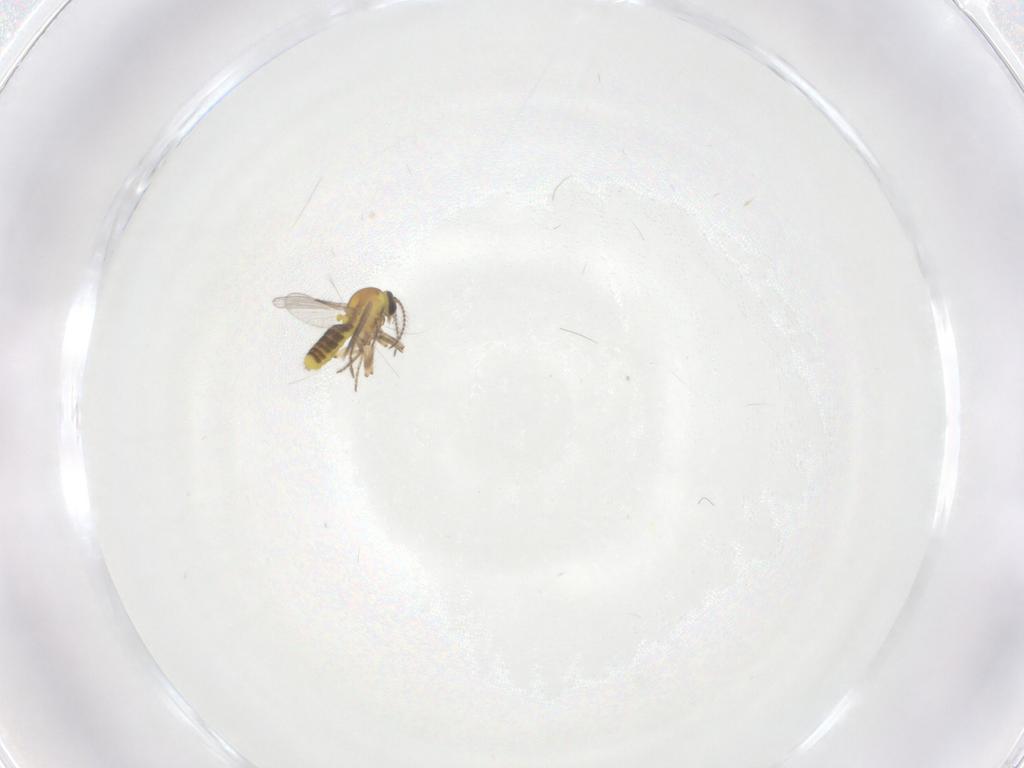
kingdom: Animalia
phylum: Arthropoda
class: Insecta
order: Diptera
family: Ceratopogonidae
